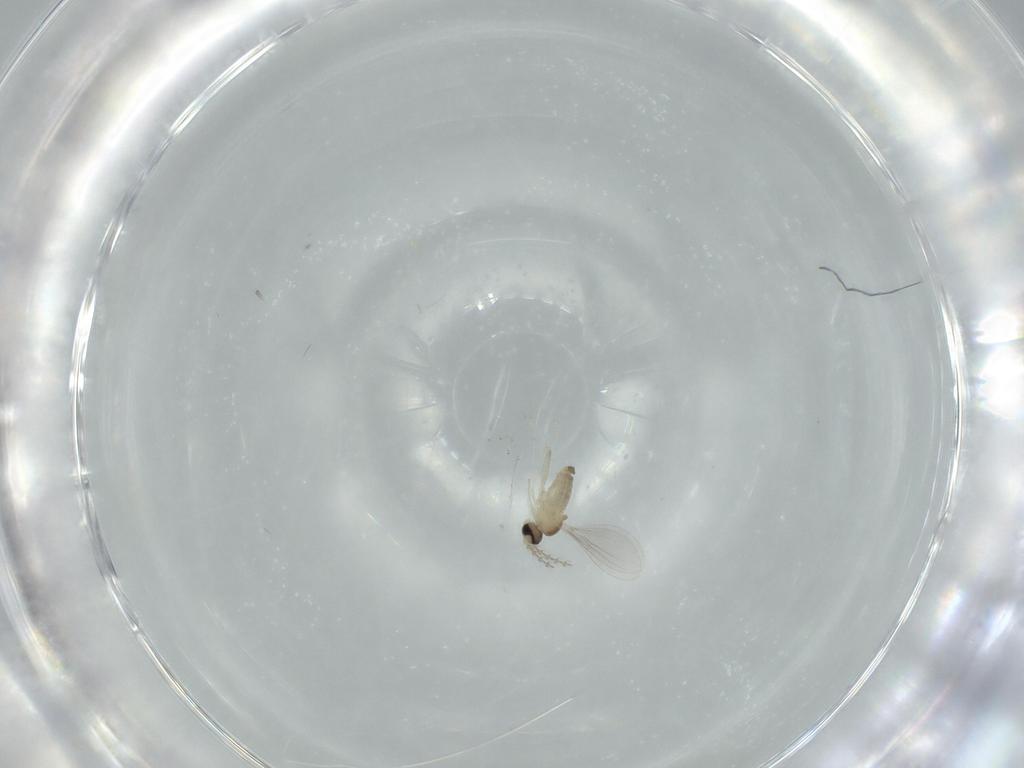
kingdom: Animalia
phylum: Arthropoda
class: Insecta
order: Diptera
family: Cecidomyiidae
